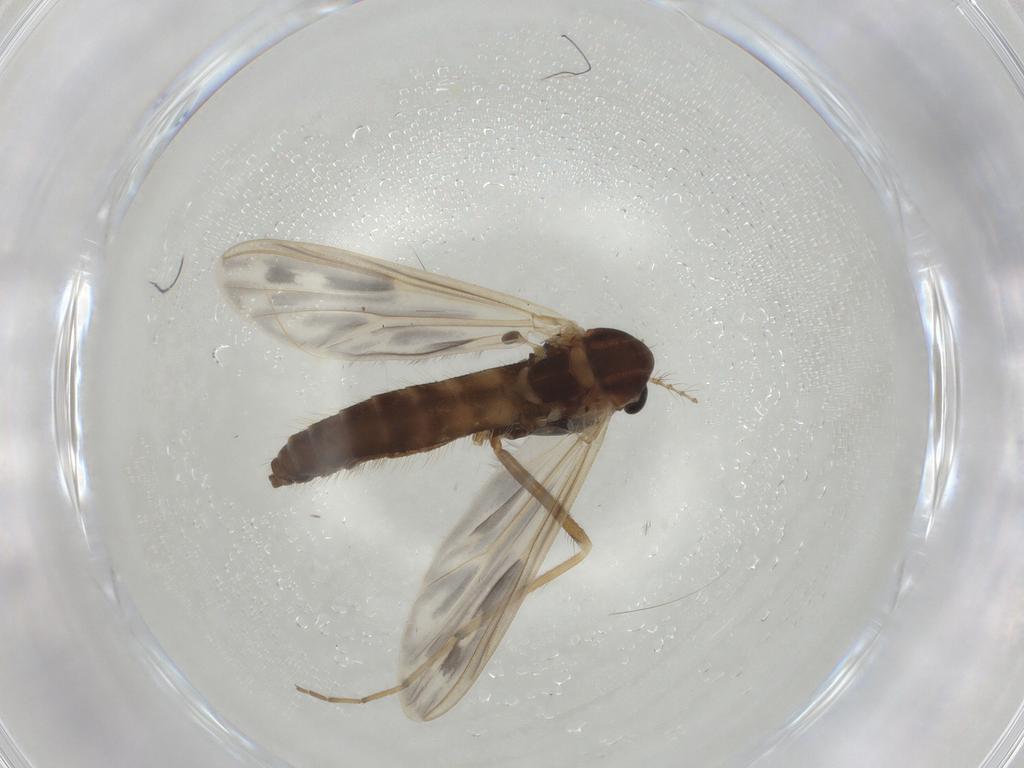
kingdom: Animalia
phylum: Arthropoda
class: Insecta
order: Diptera
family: Chironomidae
